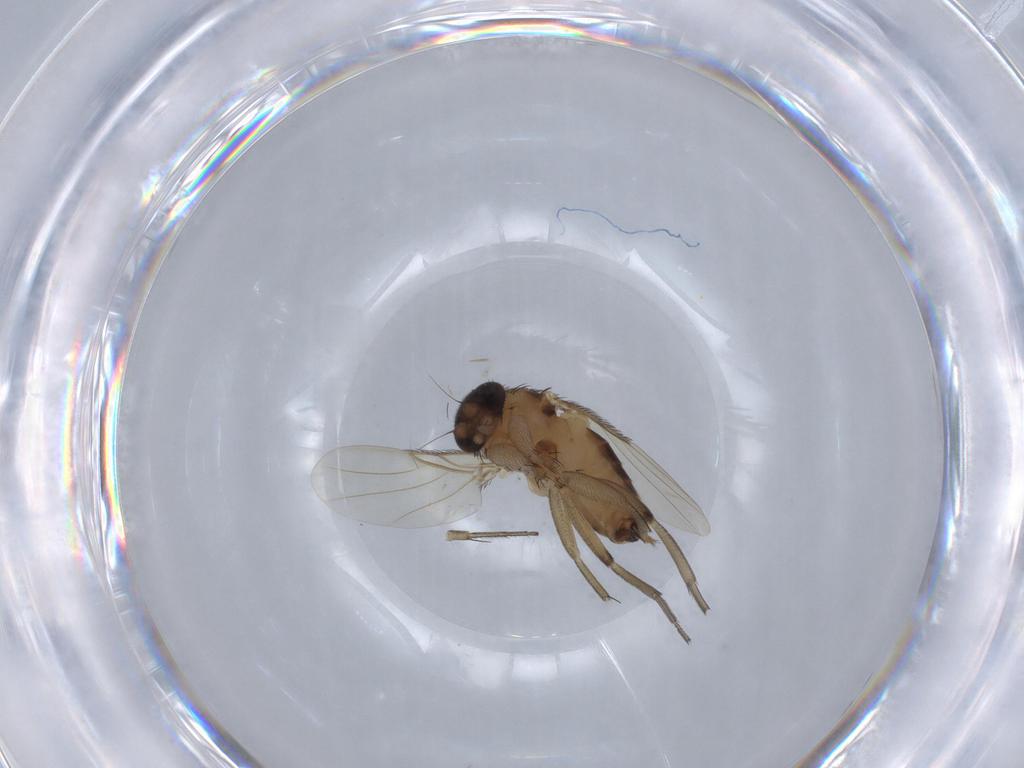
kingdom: Animalia
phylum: Arthropoda
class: Insecta
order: Diptera
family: Phoridae
